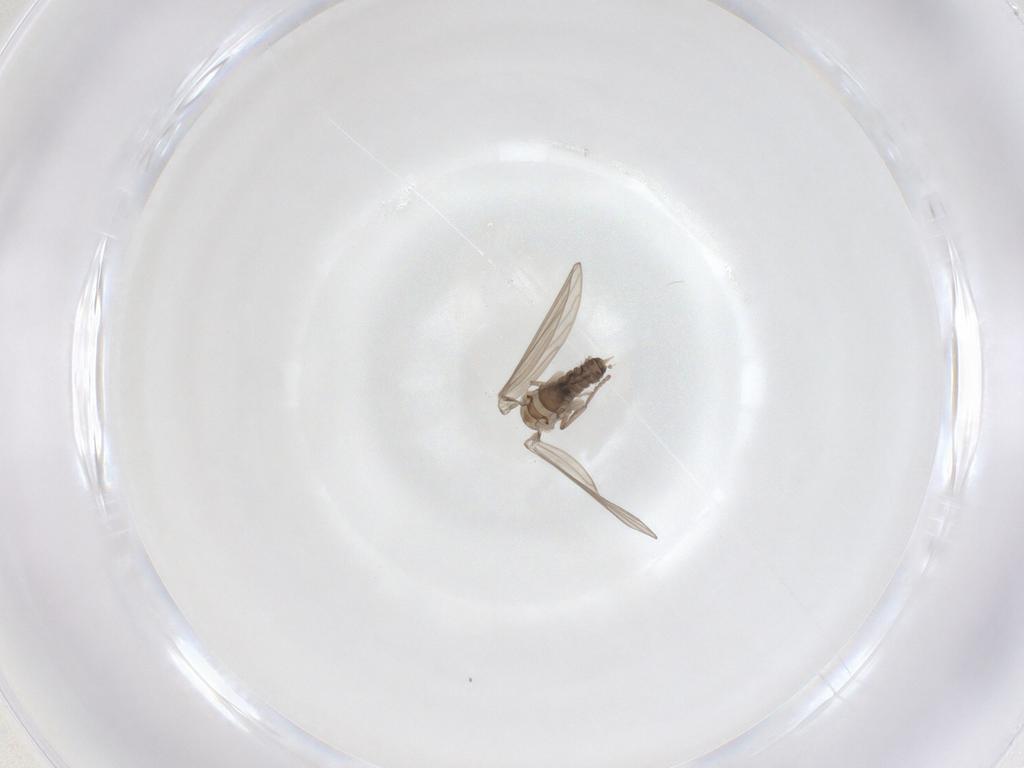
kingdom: Animalia
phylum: Arthropoda
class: Insecta
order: Diptera
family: Psychodidae
